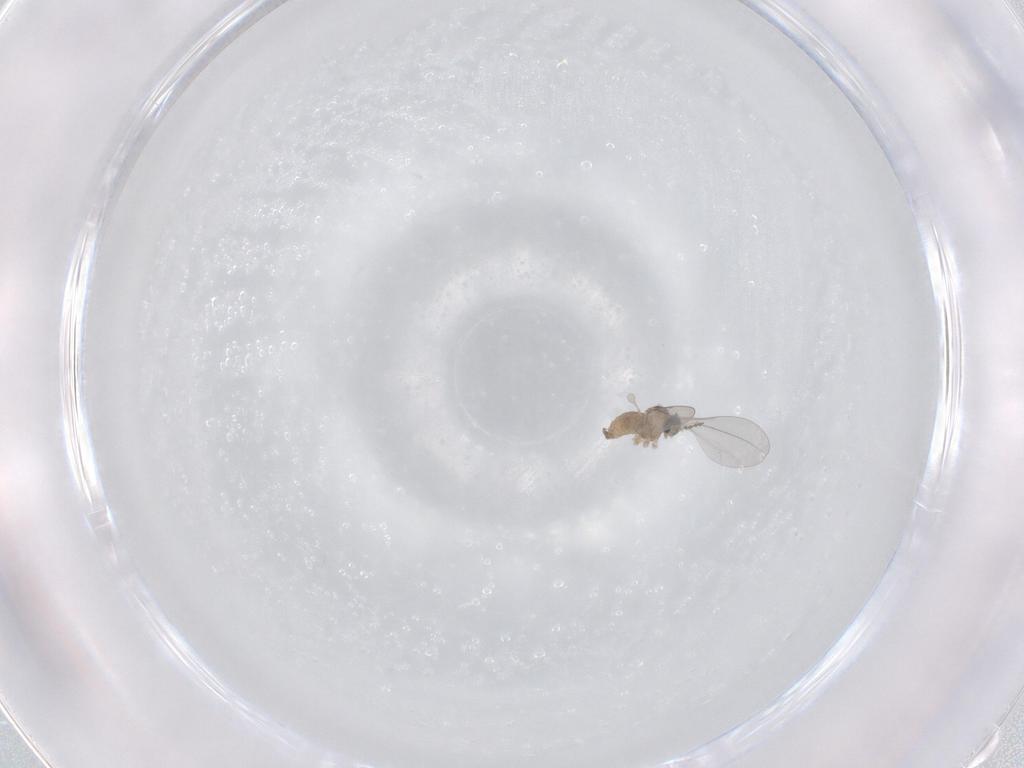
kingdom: Animalia
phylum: Arthropoda
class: Insecta
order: Diptera
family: Cecidomyiidae
